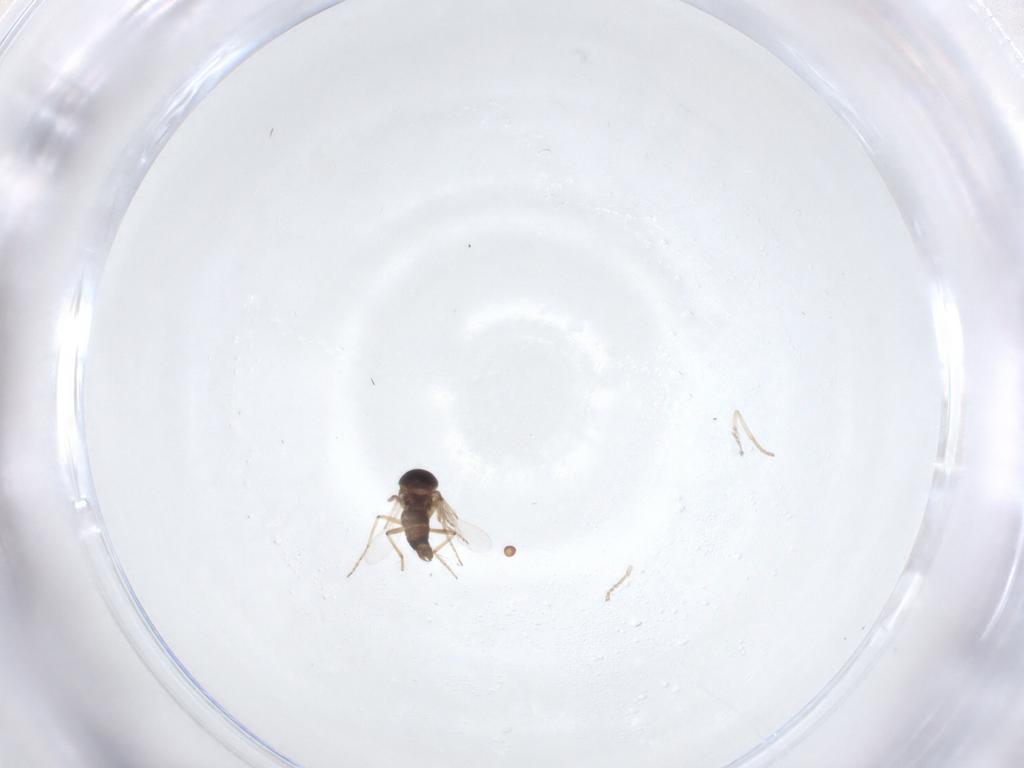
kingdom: Animalia
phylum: Arthropoda
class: Insecta
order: Diptera
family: Ceratopogonidae
